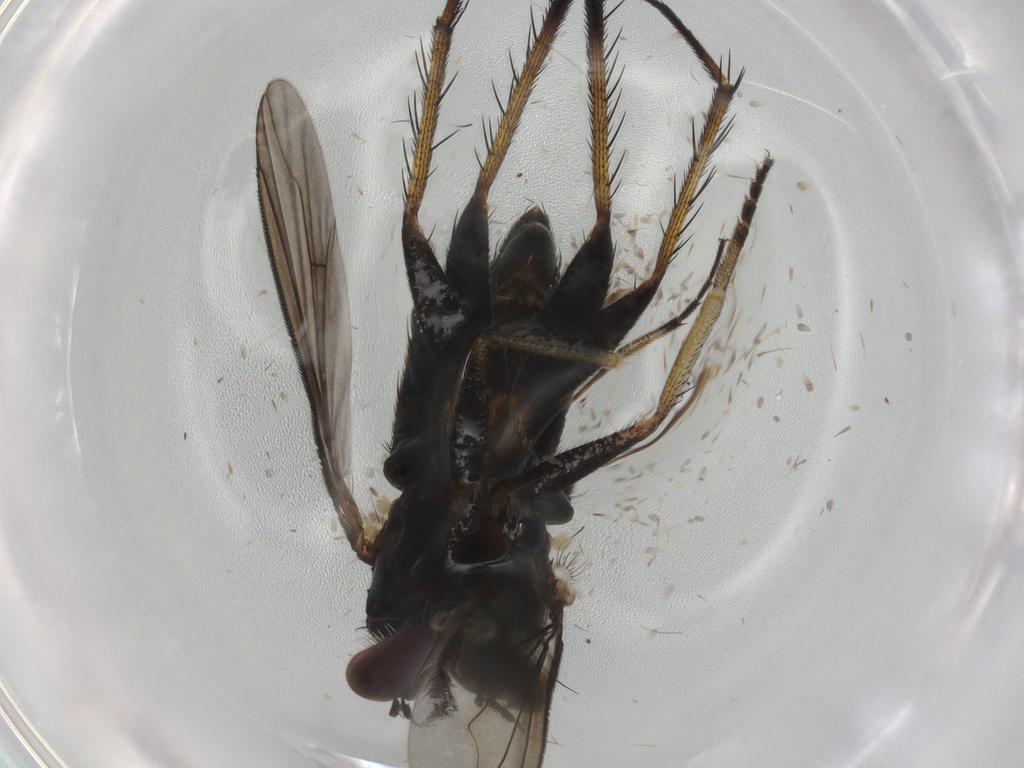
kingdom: Animalia
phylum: Arthropoda
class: Insecta
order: Diptera
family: Dolichopodidae
